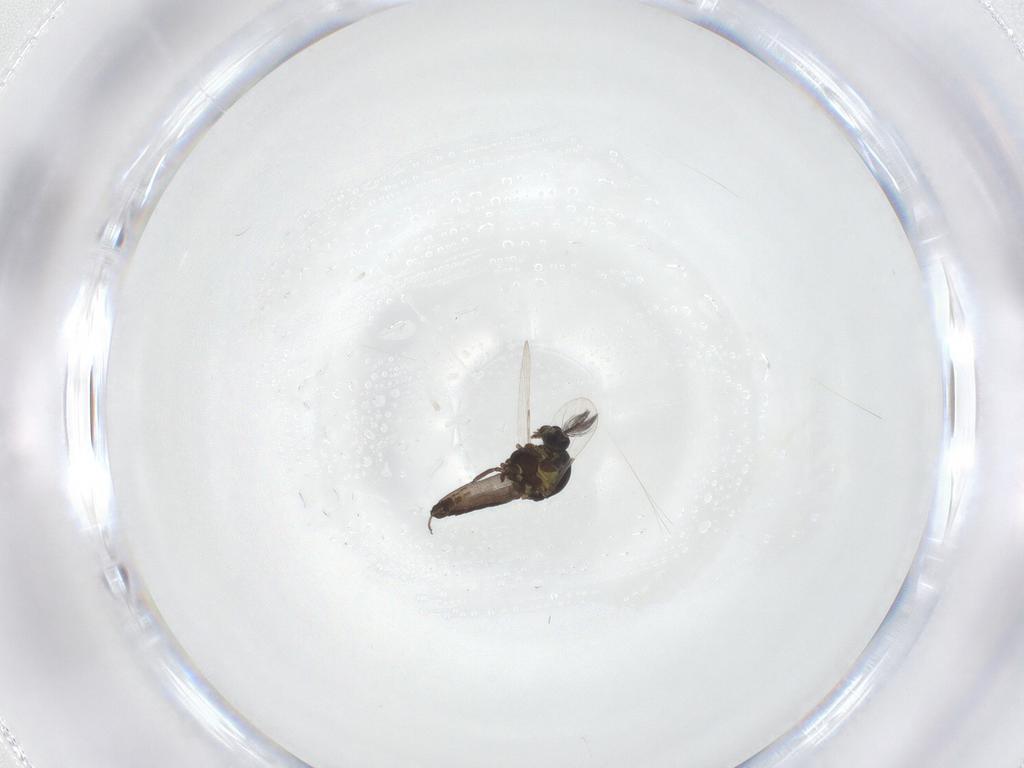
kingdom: Animalia
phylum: Arthropoda
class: Insecta
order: Diptera
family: Ceratopogonidae
